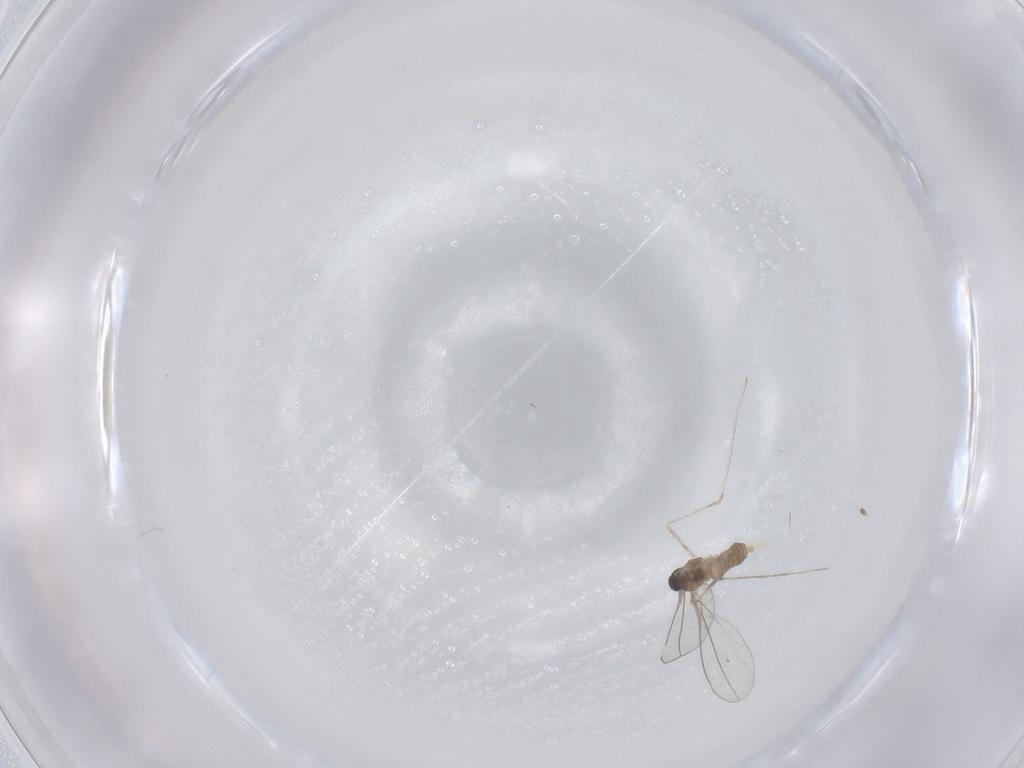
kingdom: Animalia
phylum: Arthropoda
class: Insecta
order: Diptera
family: Cecidomyiidae
